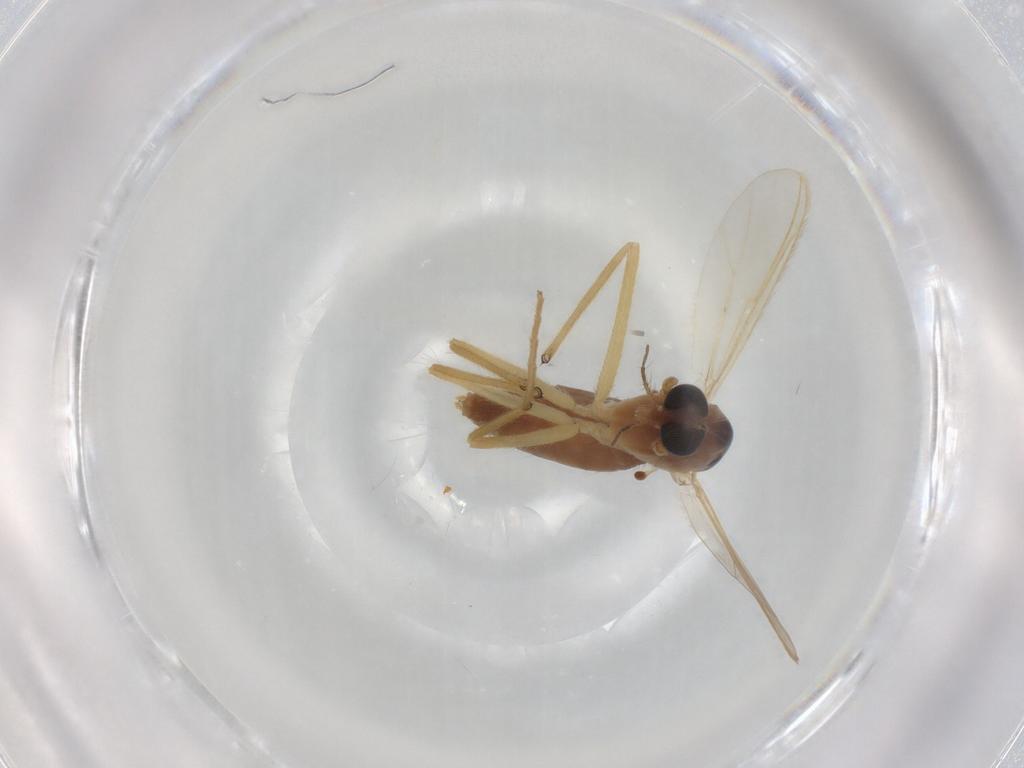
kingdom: Animalia
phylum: Arthropoda
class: Insecta
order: Diptera
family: Chironomidae
